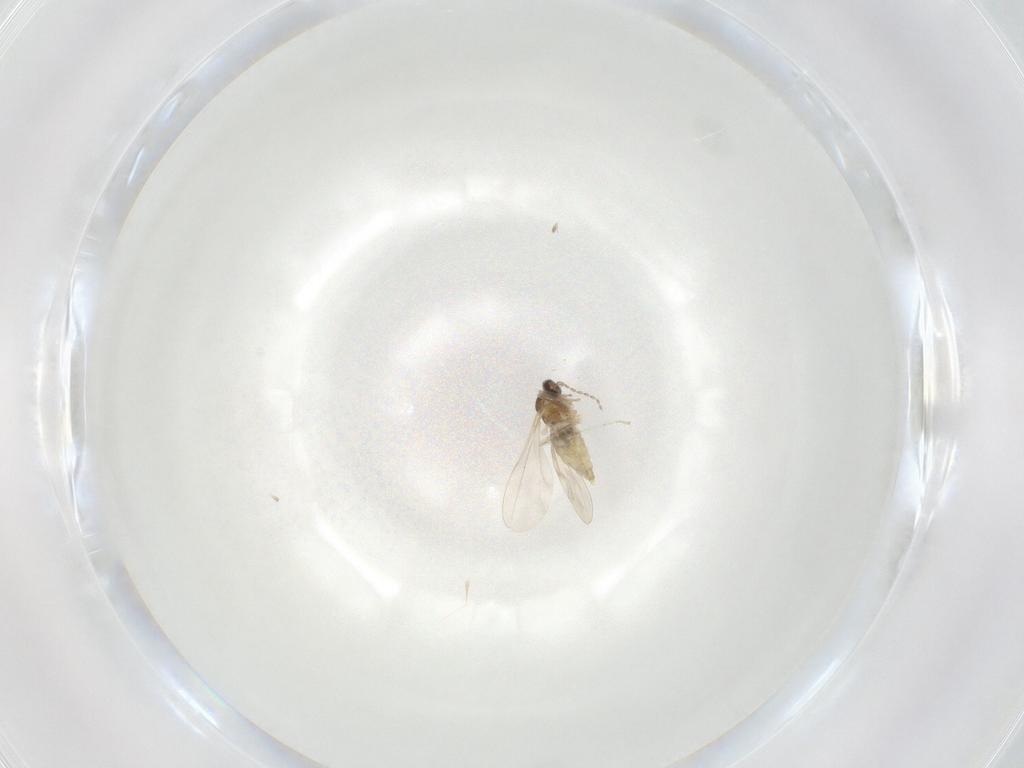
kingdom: Animalia
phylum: Arthropoda
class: Insecta
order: Diptera
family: Cecidomyiidae
